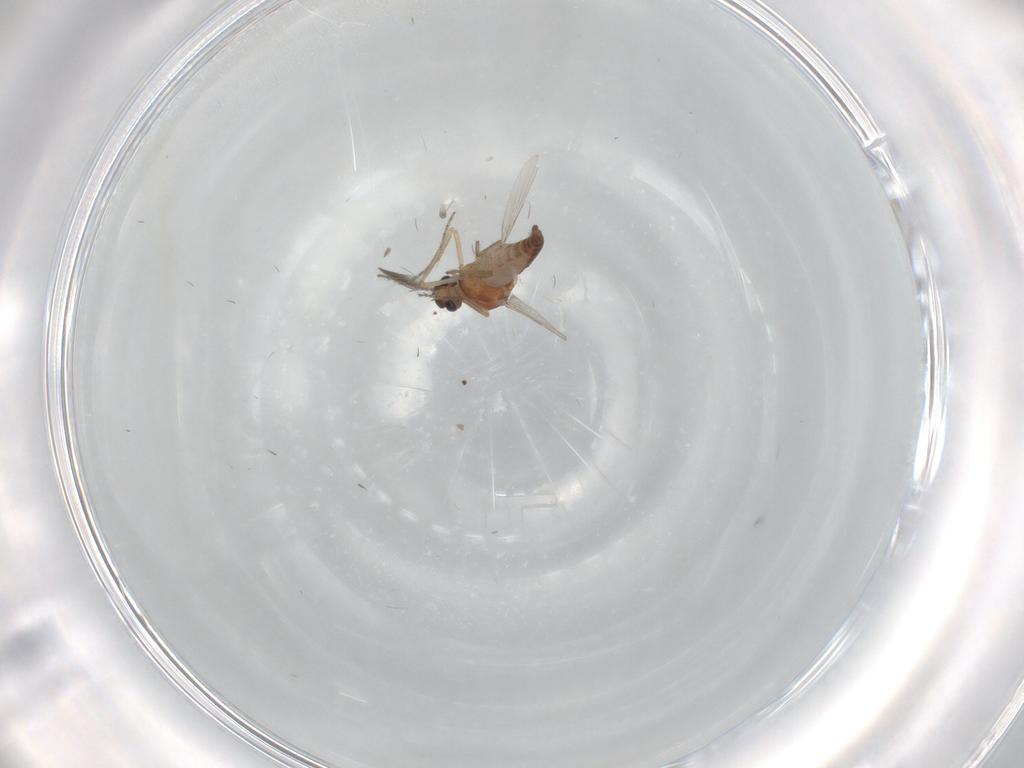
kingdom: Animalia
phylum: Arthropoda
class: Insecta
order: Diptera
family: Ceratopogonidae
